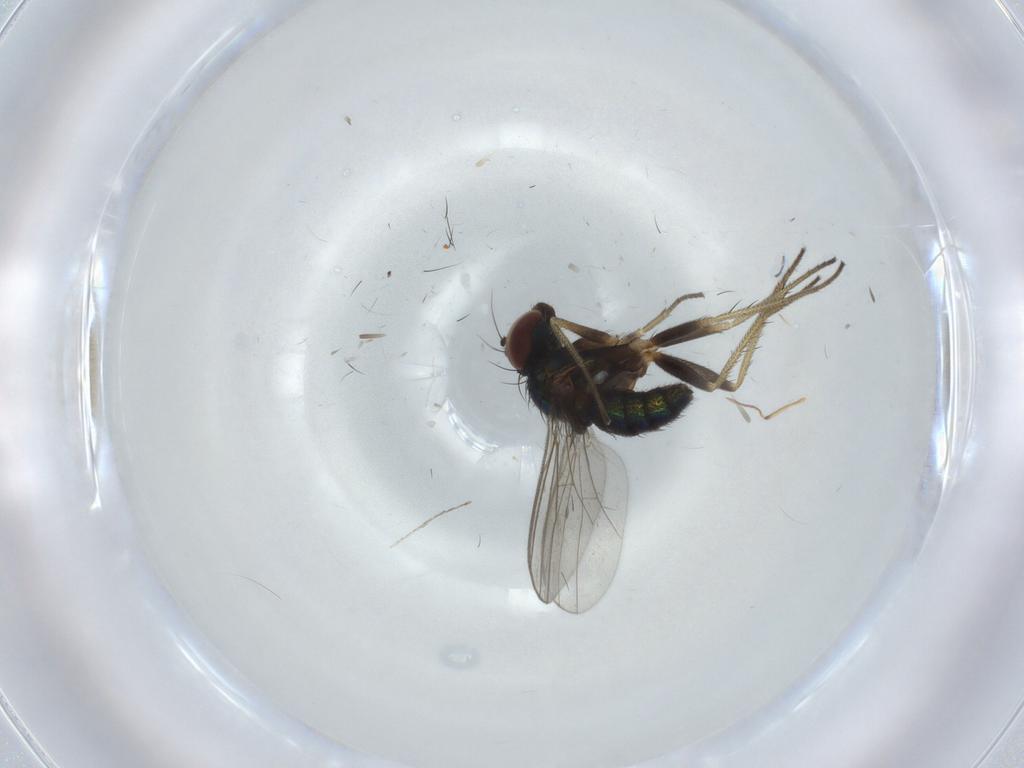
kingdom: Animalia
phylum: Arthropoda
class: Insecta
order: Diptera
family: Dolichopodidae
